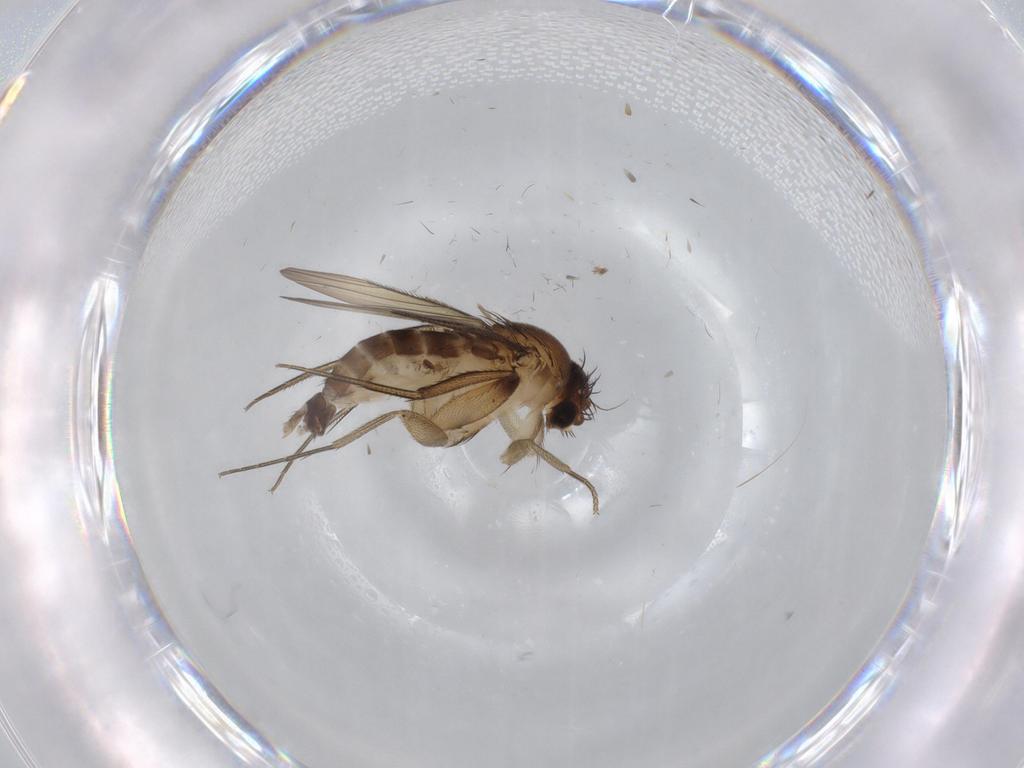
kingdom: Animalia
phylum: Arthropoda
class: Insecta
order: Diptera
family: Phoridae
